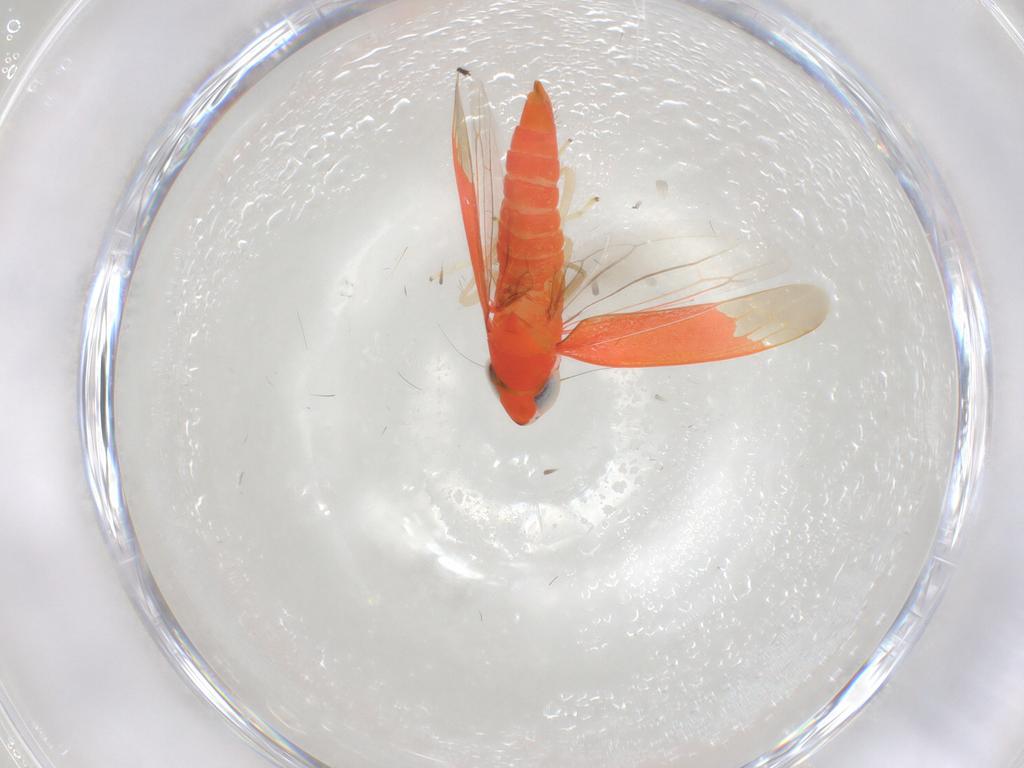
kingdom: Animalia
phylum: Arthropoda
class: Insecta
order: Hemiptera
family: Cicadellidae
